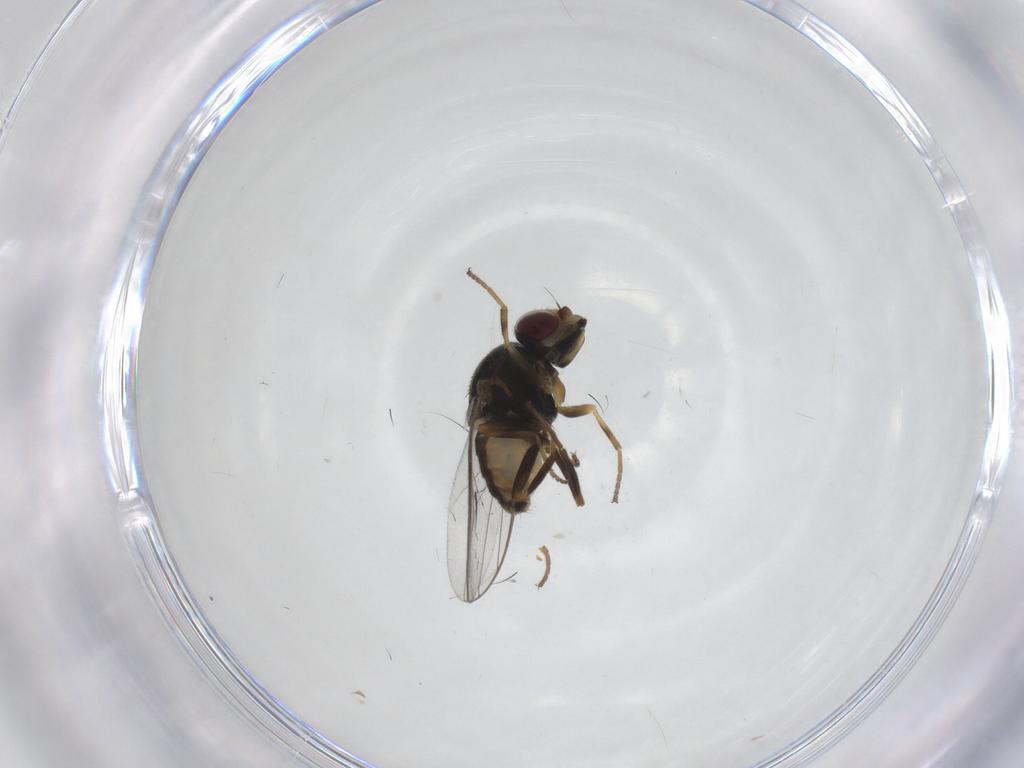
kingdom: Animalia
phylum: Arthropoda
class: Insecta
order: Diptera
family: Chloropidae
